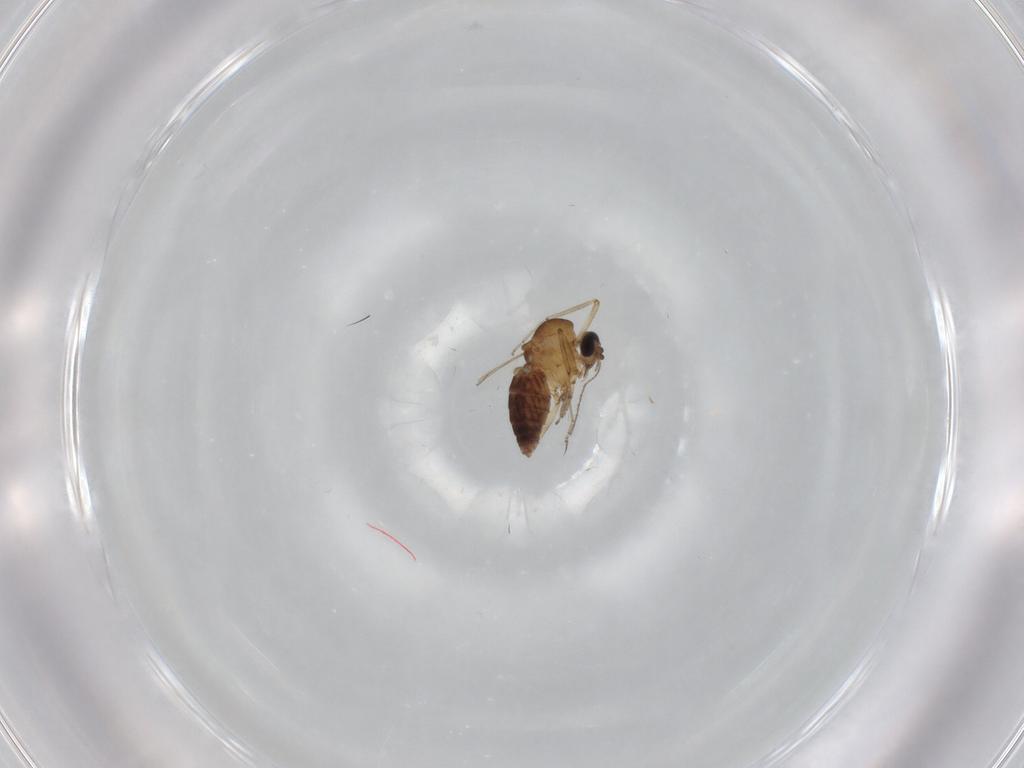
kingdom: Animalia
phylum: Arthropoda
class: Insecta
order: Diptera
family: Ceratopogonidae
